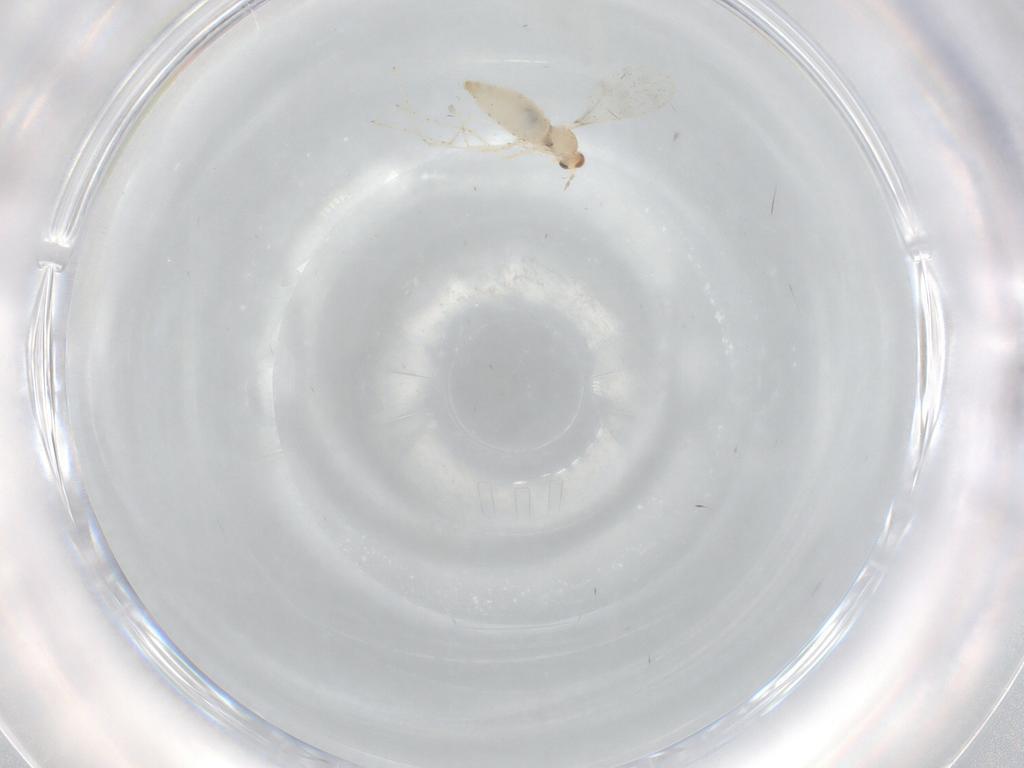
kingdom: Animalia
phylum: Arthropoda
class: Insecta
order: Diptera
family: Cecidomyiidae
